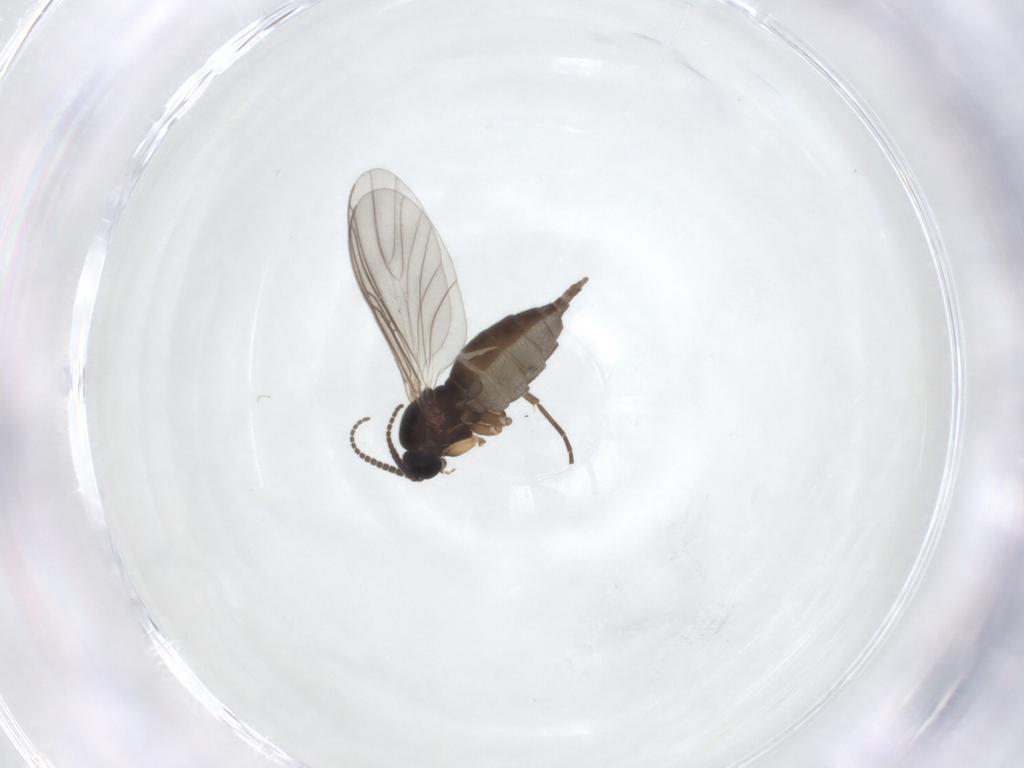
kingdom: Animalia
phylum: Arthropoda
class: Insecta
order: Diptera
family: Sciaridae
